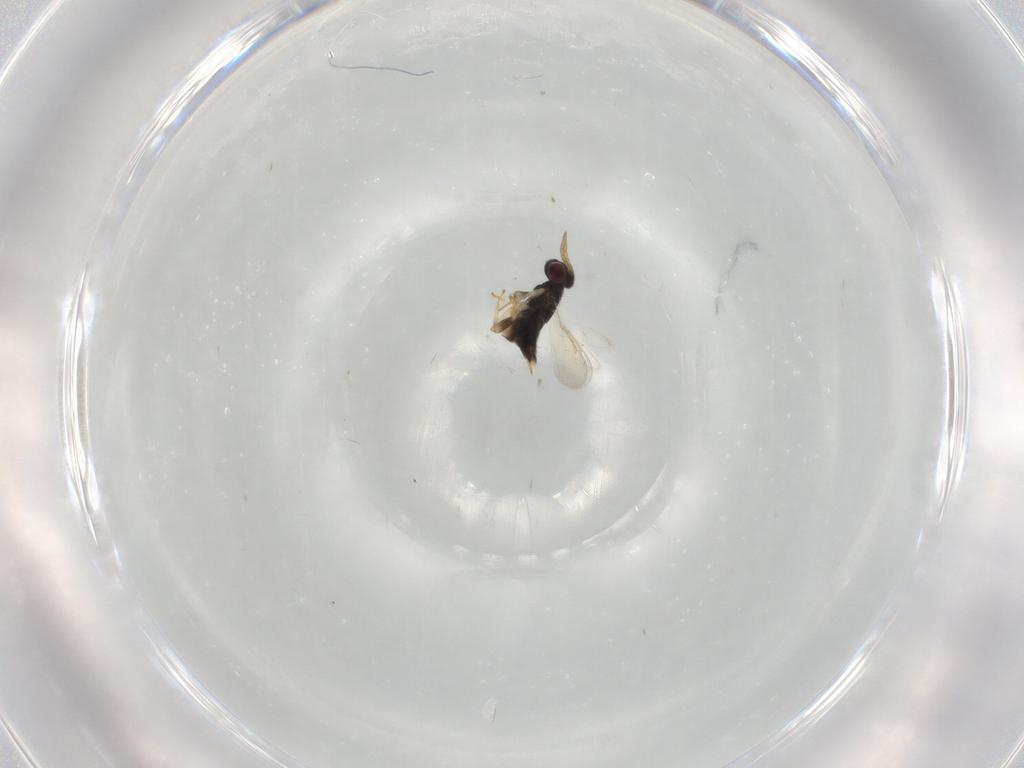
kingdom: Animalia
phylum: Arthropoda
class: Insecta
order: Hymenoptera
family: Aphelinidae
